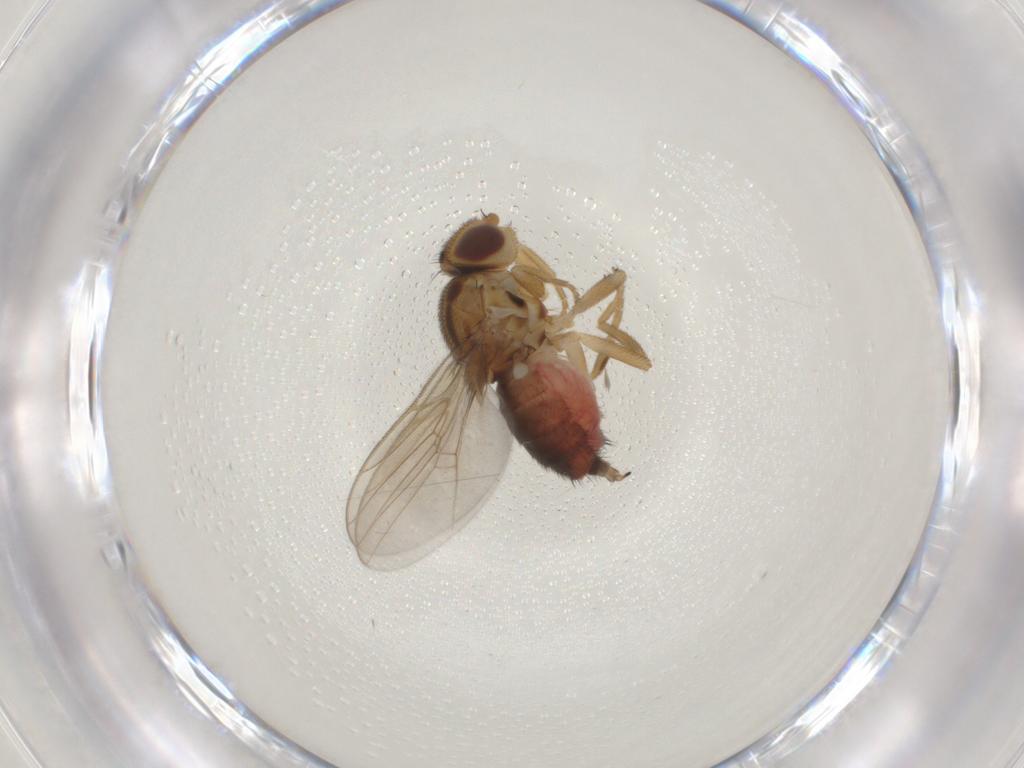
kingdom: Animalia
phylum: Arthropoda
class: Insecta
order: Diptera
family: Chloropidae
